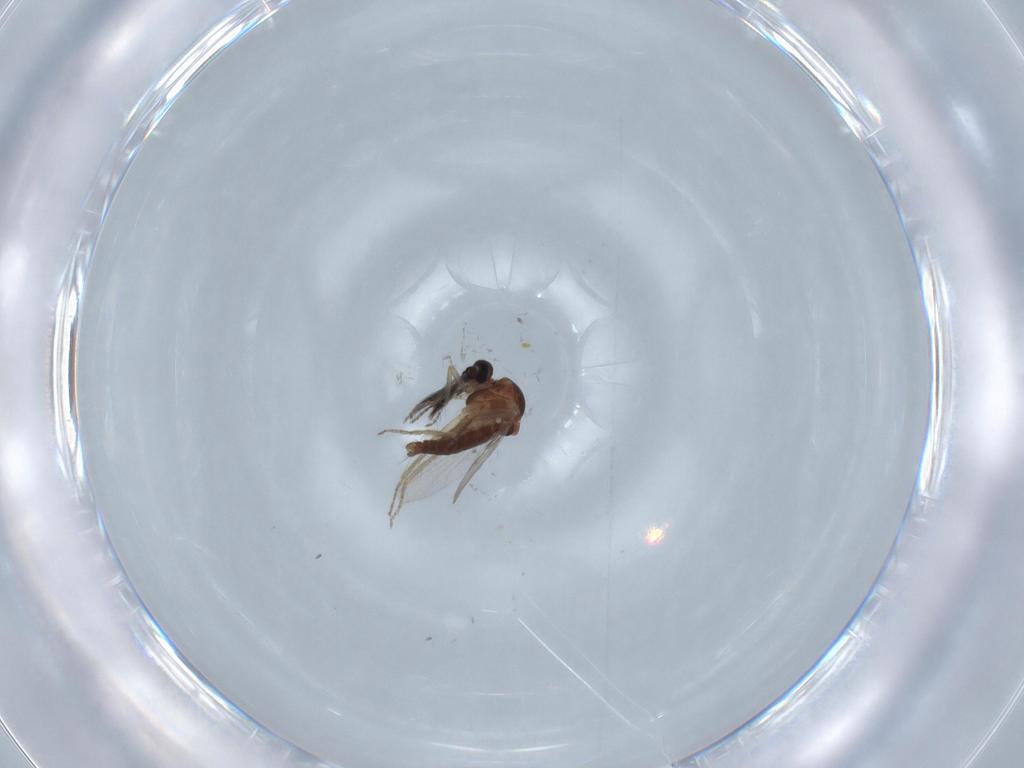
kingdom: Animalia
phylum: Arthropoda
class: Insecta
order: Diptera
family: Ceratopogonidae
